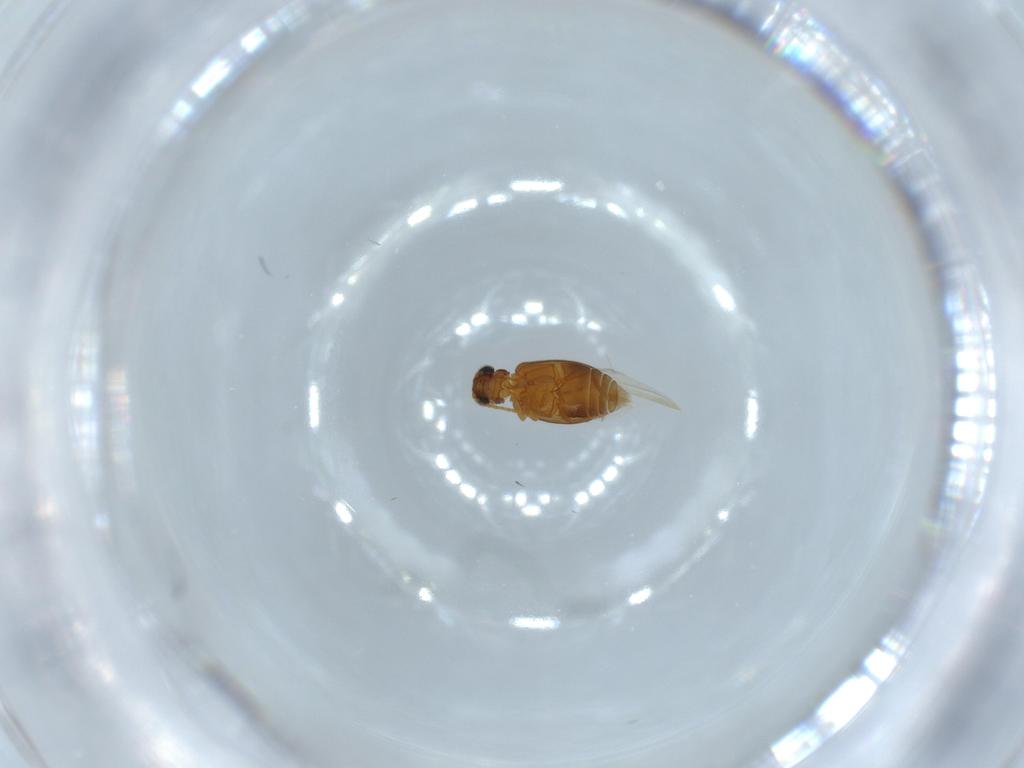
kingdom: Animalia
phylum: Arthropoda
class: Insecta
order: Coleoptera
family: Aderidae
